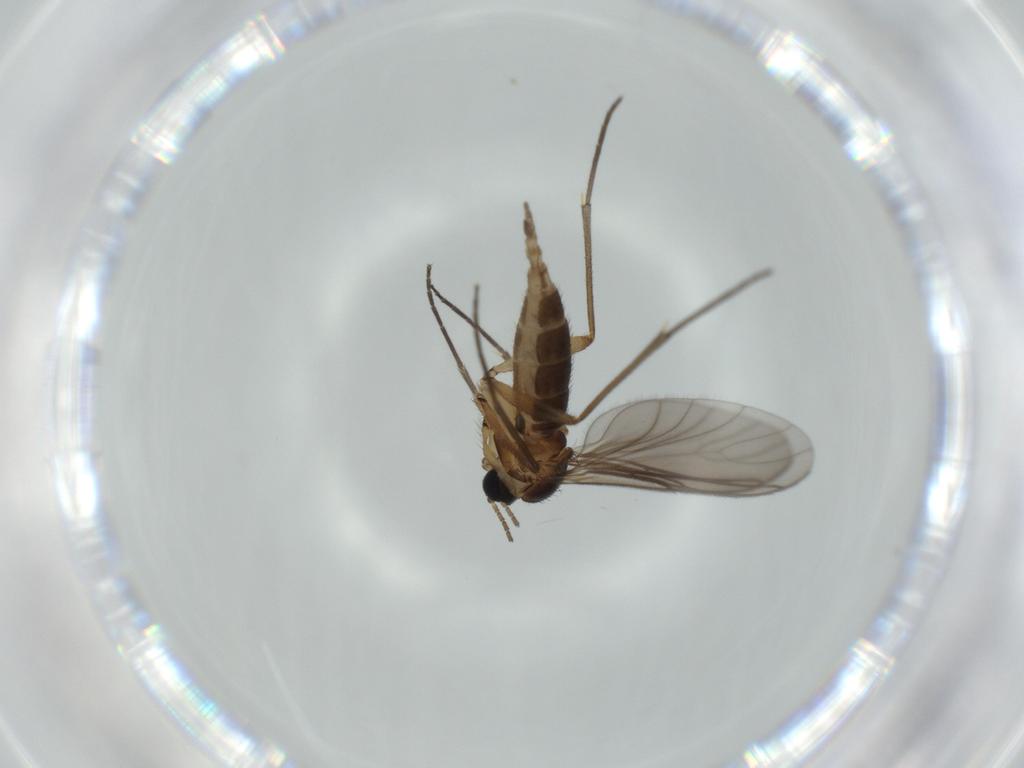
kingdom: Animalia
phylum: Arthropoda
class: Insecta
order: Diptera
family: Sciaridae
